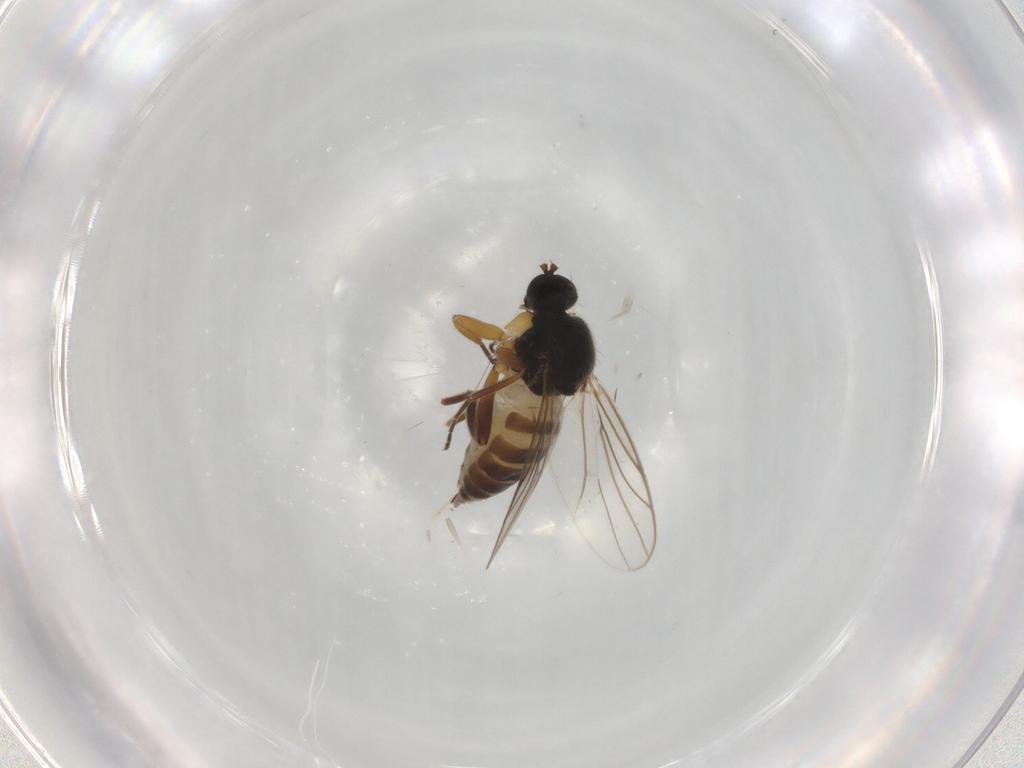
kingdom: Animalia
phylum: Arthropoda
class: Insecta
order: Diptera
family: Hybotidae
